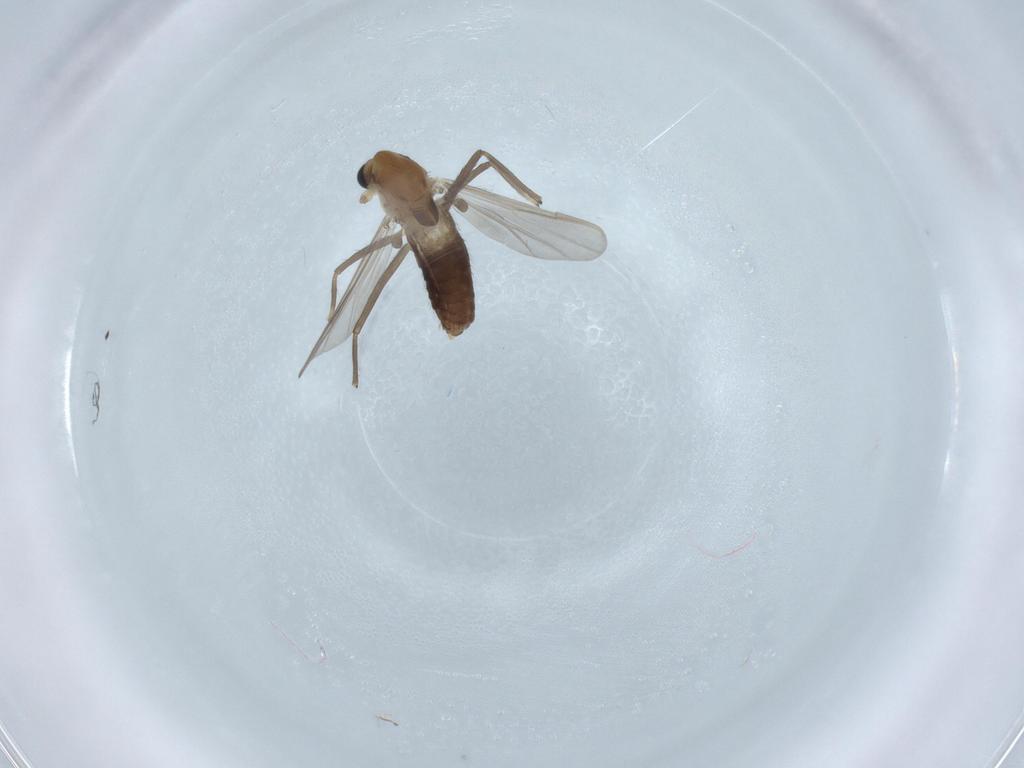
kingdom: Animalia
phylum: Arthropoda
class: Insecta
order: Diptera
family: Chironomidae
